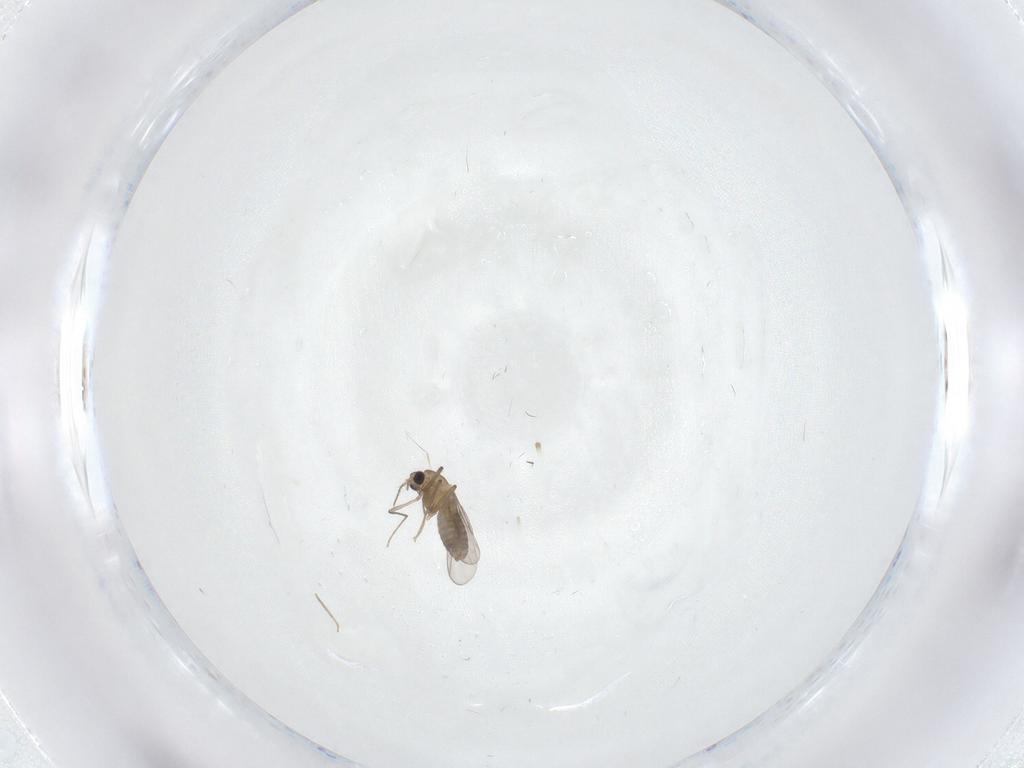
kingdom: Animalia
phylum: Arthropoda
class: Insecta
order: Diptera
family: Chironomidae
